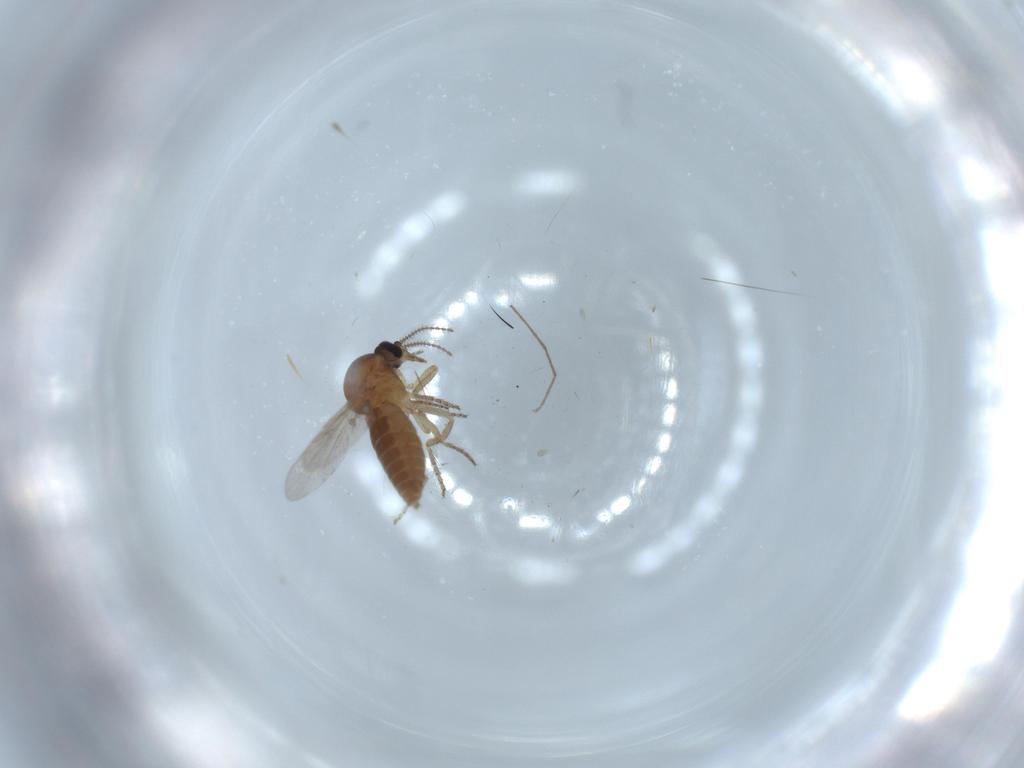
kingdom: Animalia
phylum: Arthropoda
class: Insecta
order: Diptera
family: Ceratopogonidae
